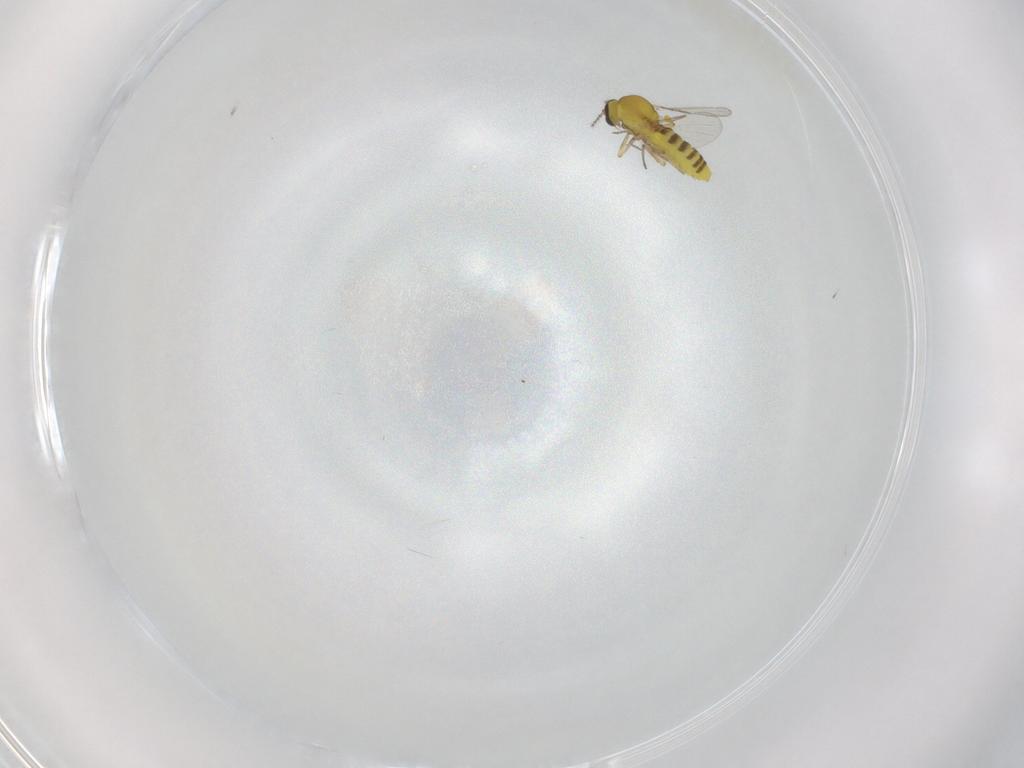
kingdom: Animalia
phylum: Arthropoda
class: Insecta
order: Diptera
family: Ceratopogonidae
